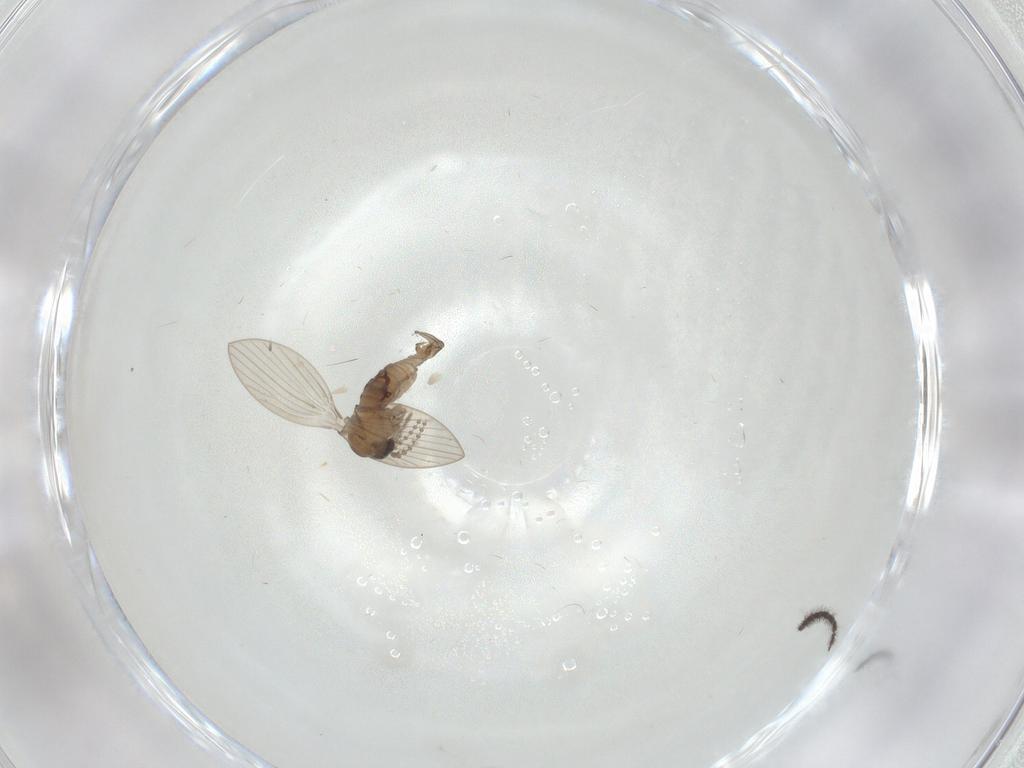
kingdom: Animalia
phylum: Arthropoda
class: Insecta
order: Diptera
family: Psychodidae
